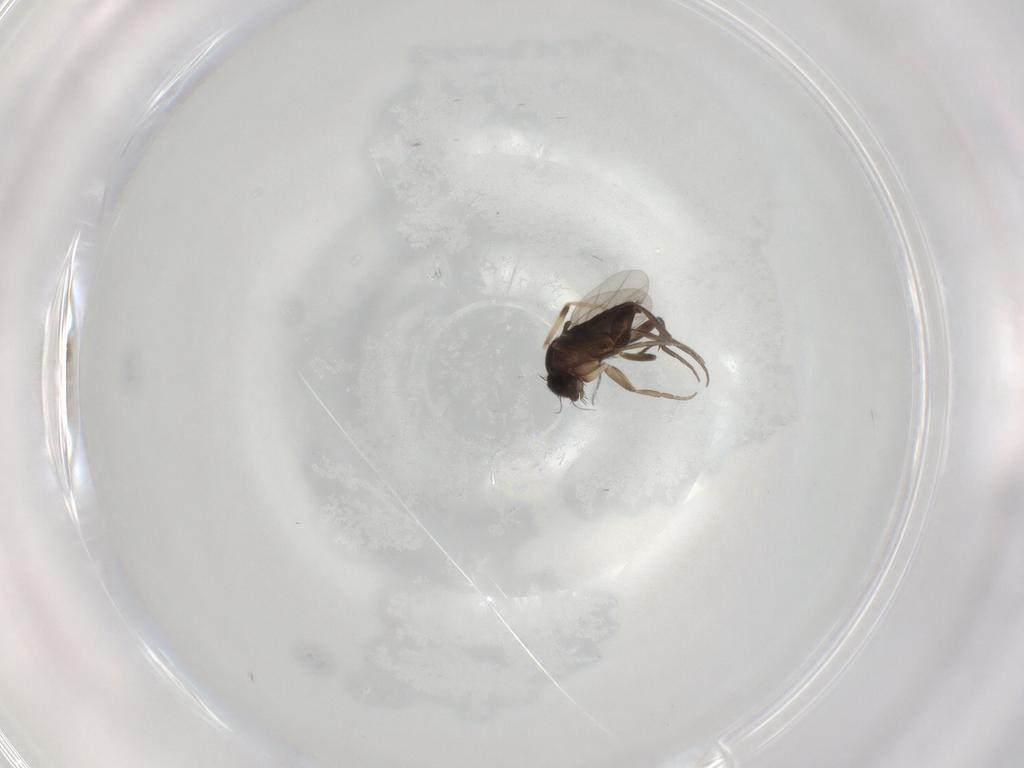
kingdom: Animalia
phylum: Arthropoda
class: Insecta
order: Diptera
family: Phoridae
